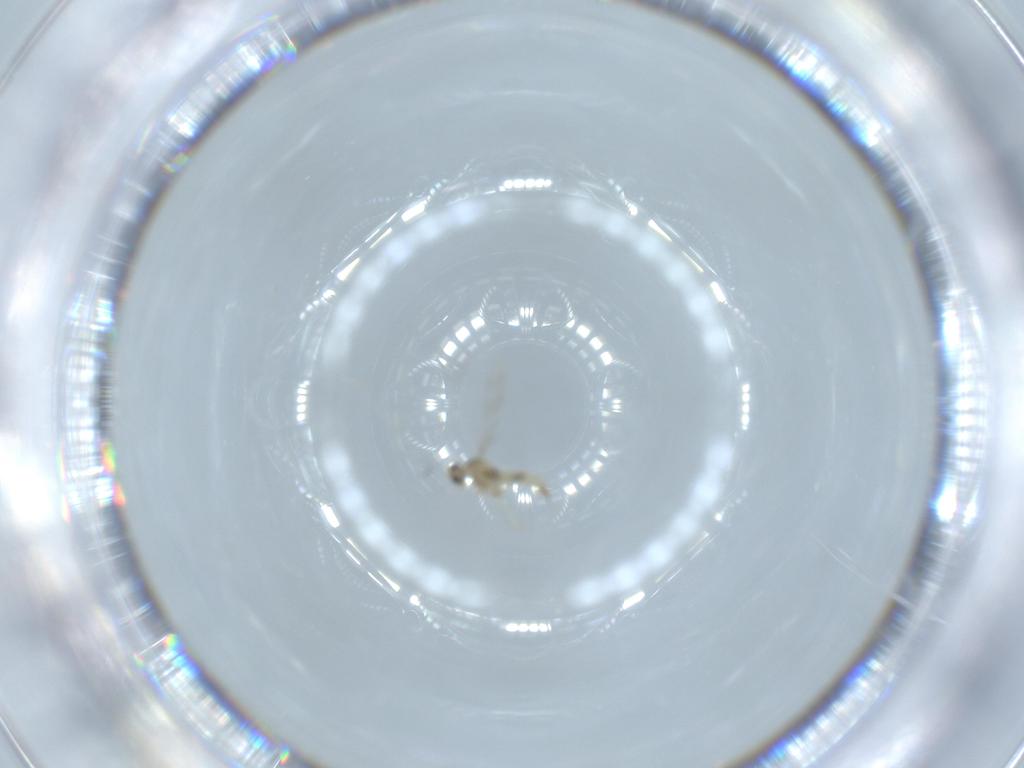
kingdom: Animalia
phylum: Arthropoda
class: Insecta
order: Diptera
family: Cecidomyiidae
